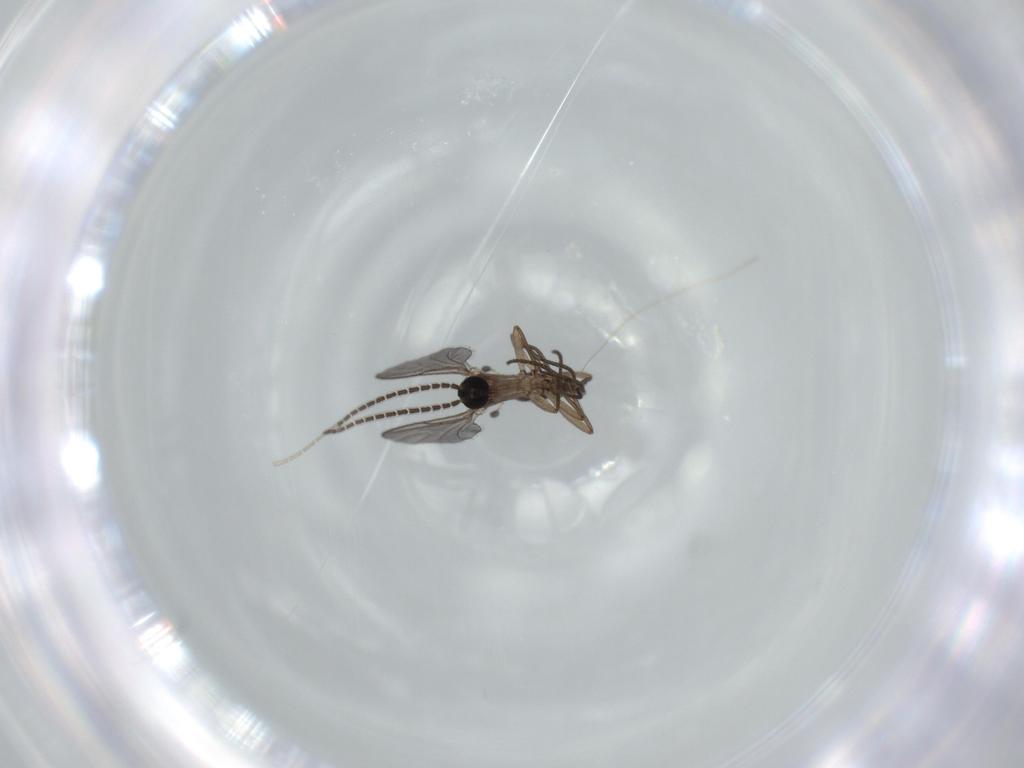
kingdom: Animalia
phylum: Arthropoda
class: Insecta
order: Diptera
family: Sciaridae
